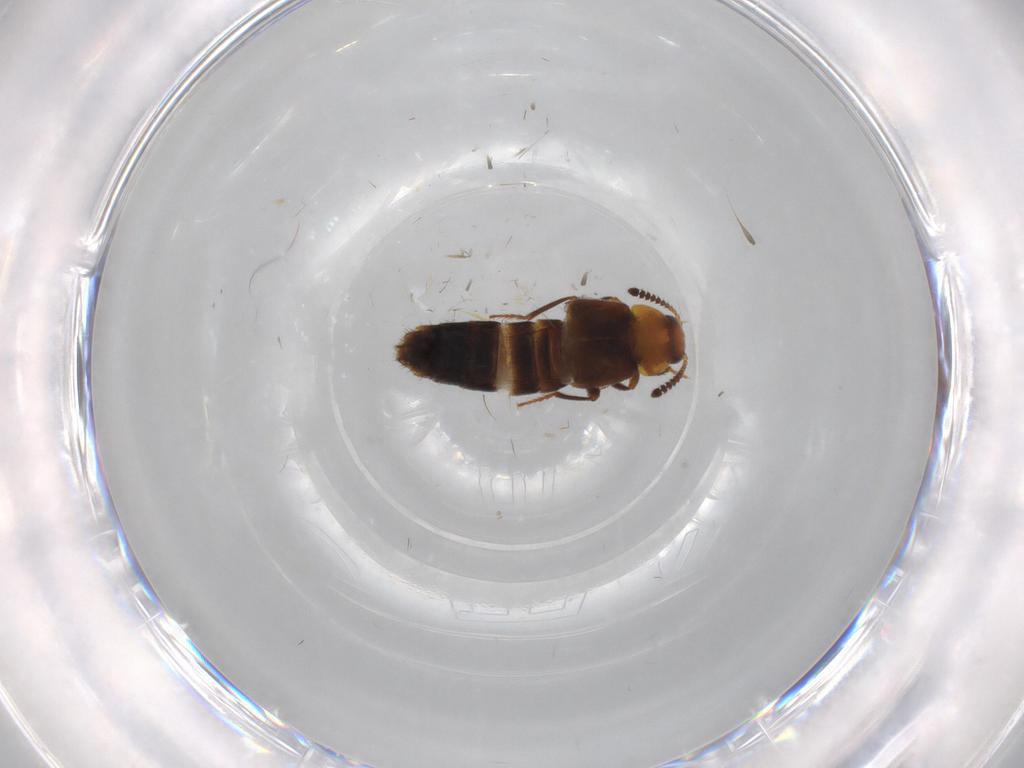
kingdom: Animalia
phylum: Arthropoda
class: Insecta
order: Coleoptera
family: Staphylinidae
